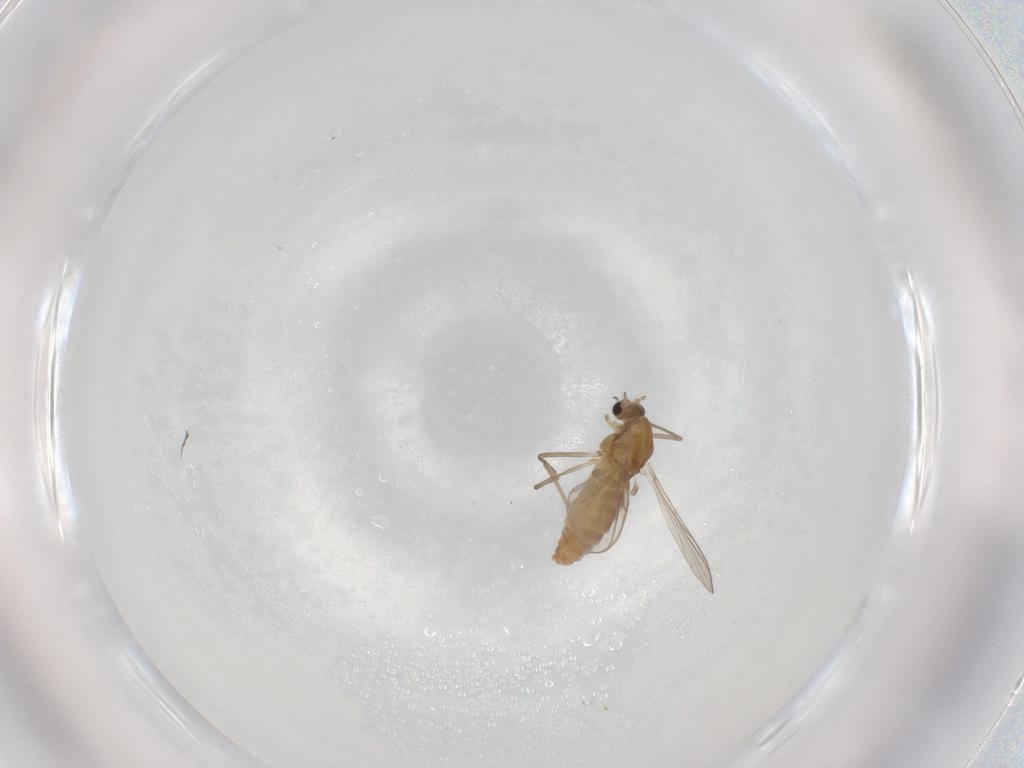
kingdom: Animalia
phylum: Arthropoda
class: Insecta
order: Diptera
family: Chironomidae
